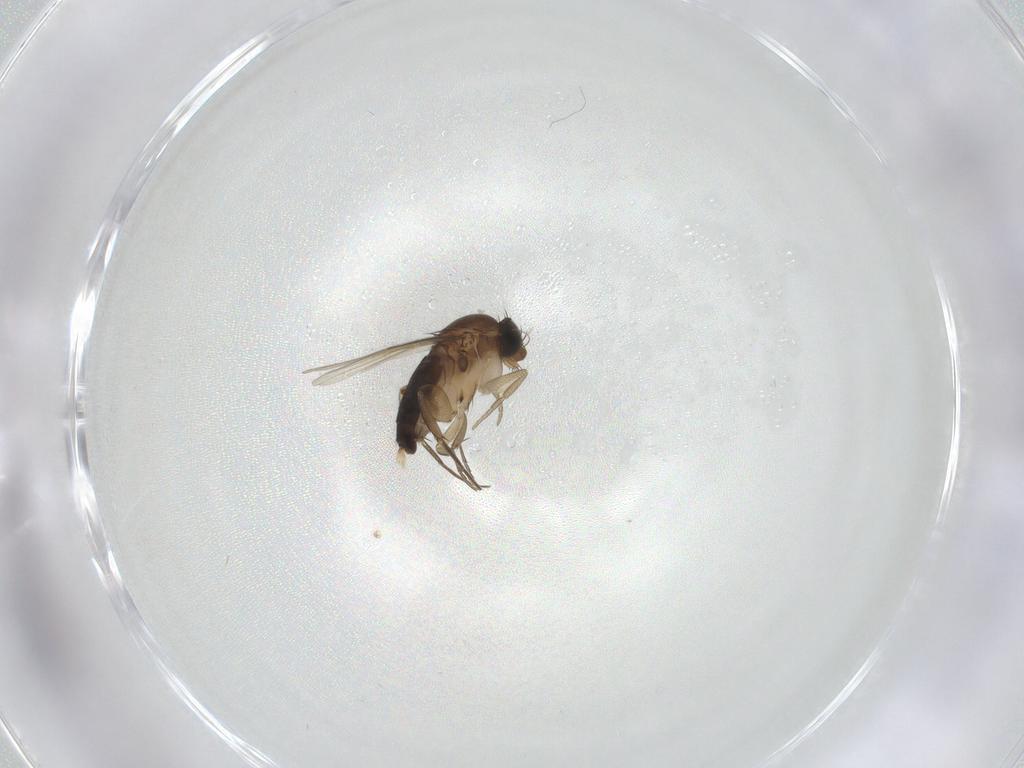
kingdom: Animalia
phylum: Arthropoda
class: Insecta
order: Diptera
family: Phoridae
